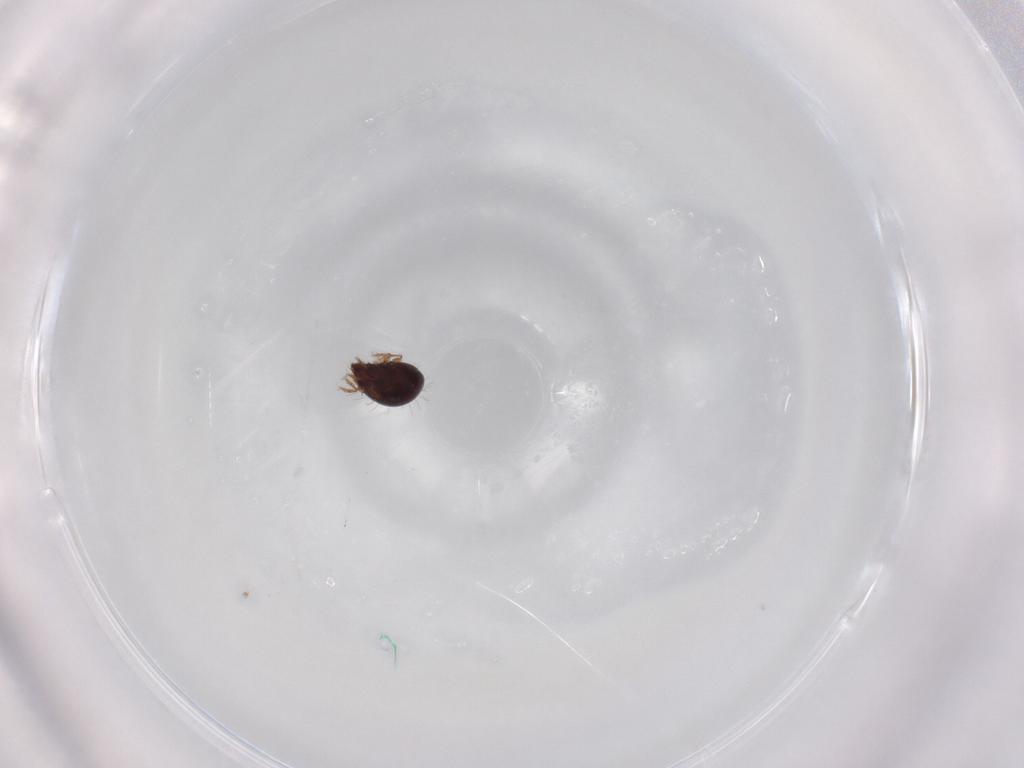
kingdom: Animalia
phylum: Arthropoda
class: Arachnida
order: Sarcoptiformes
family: Humerobatidae
